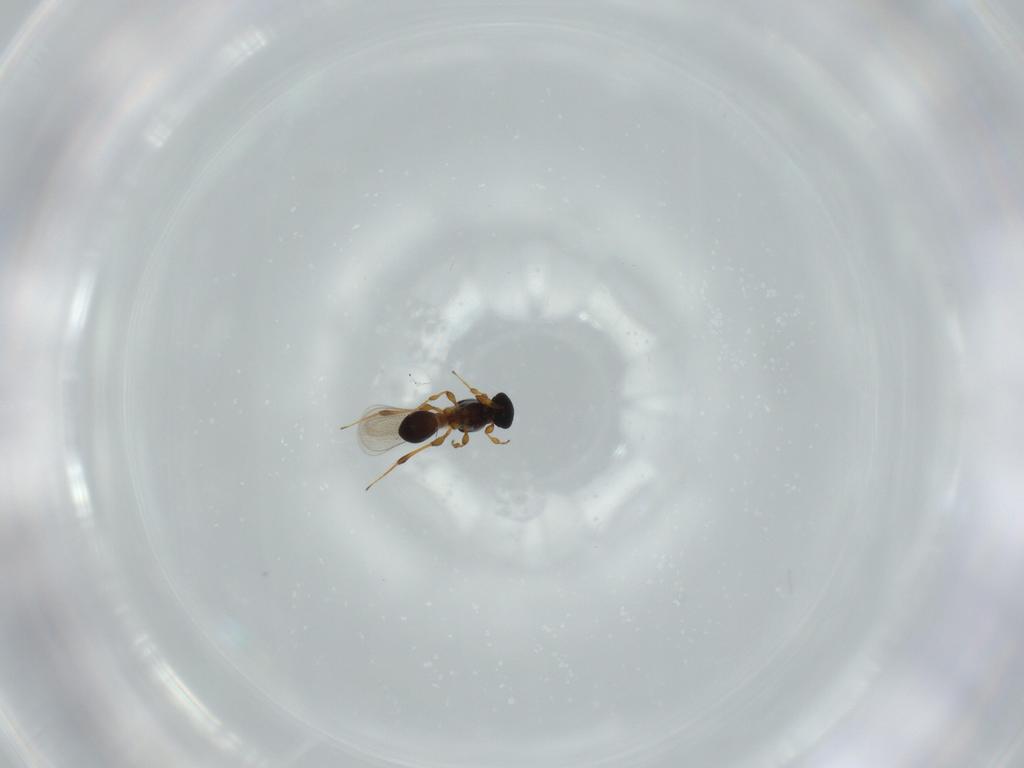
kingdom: Animalia
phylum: Arthropoda
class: Insecta
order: Hymenoptera
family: Platygastridae
